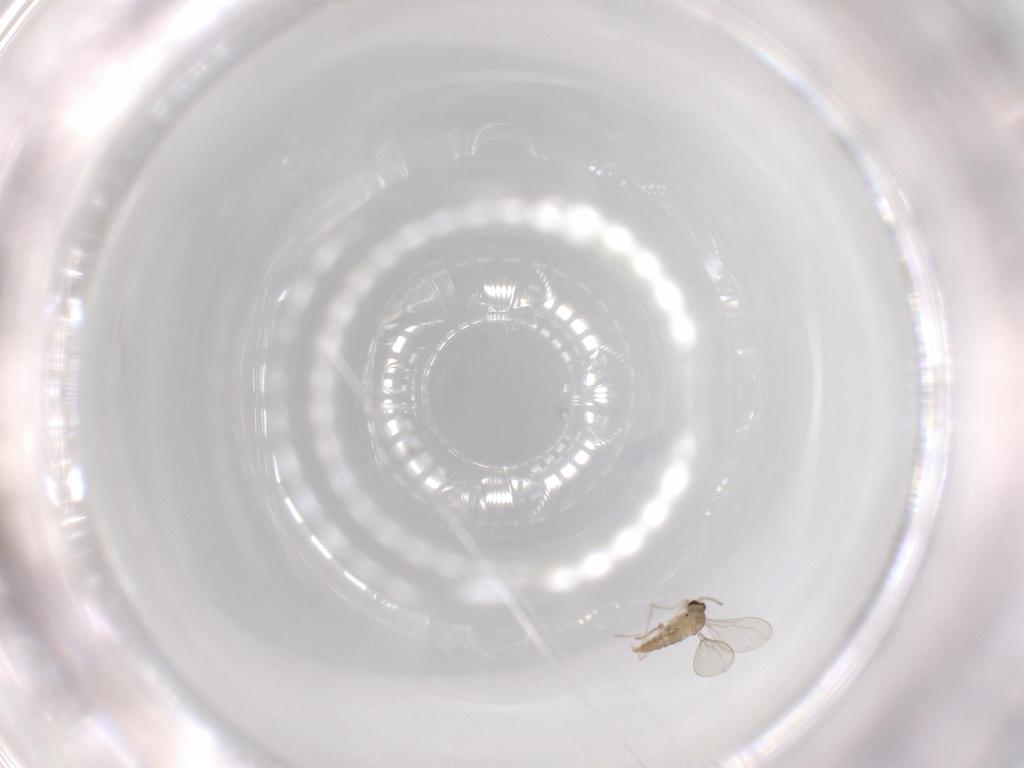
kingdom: Animalia
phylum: Arthropoda
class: Insecta
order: Diptera
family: Cecidomyiidae
